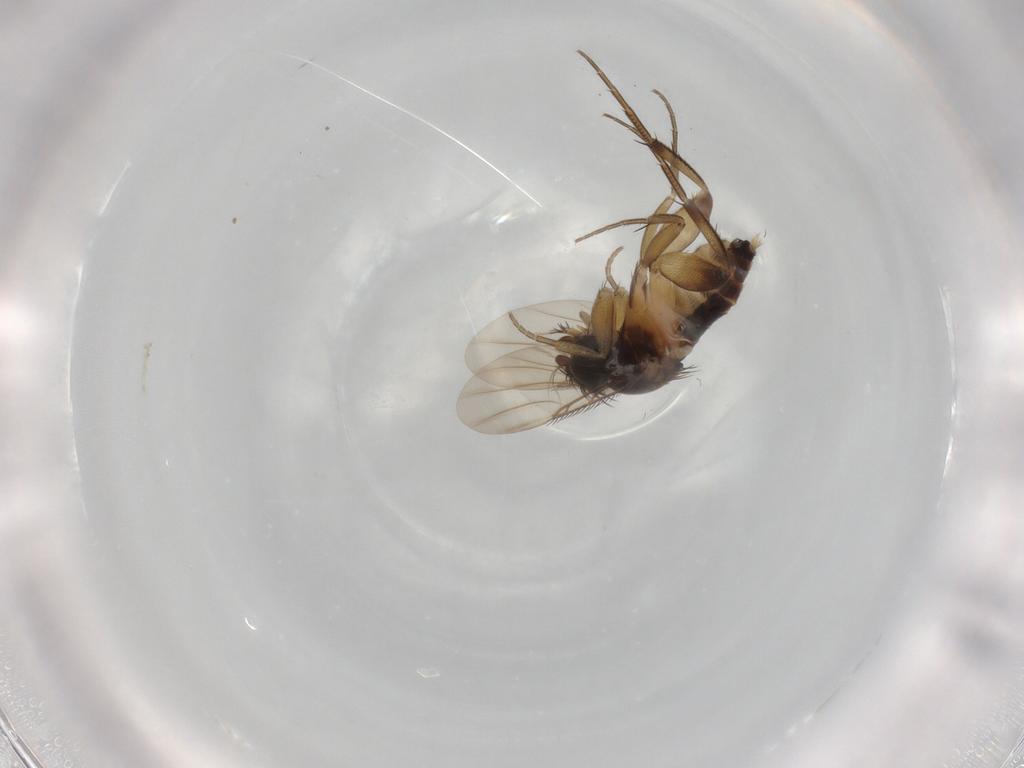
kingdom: Animalia
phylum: Arthropoda
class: Insecta
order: Diptera
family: Phoridae
